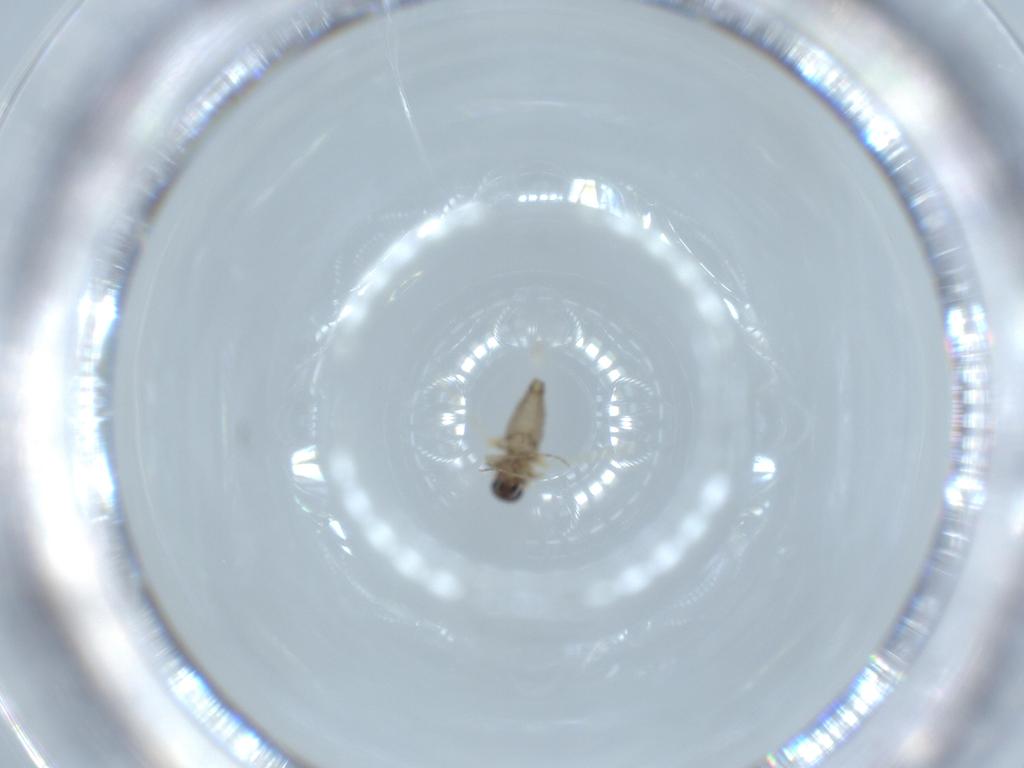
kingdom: Animalia
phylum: Arthropoda
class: Insecta
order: Diptera
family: Ceratopogonidae
